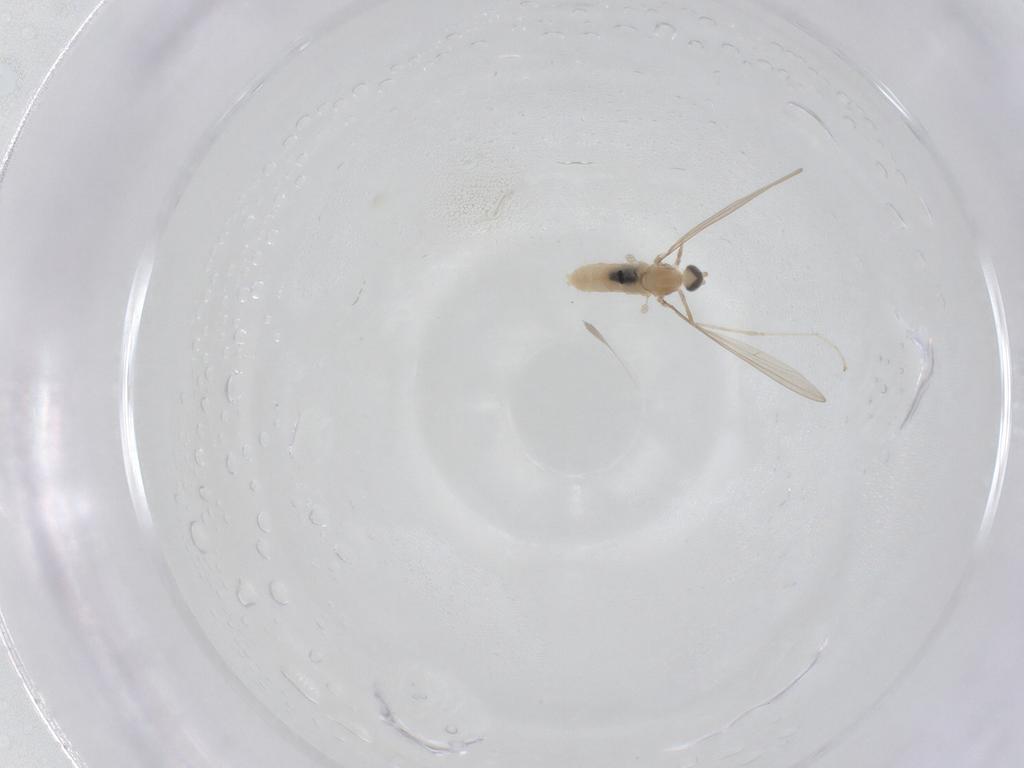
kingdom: Animalia
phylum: Arthropoda
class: Insecta
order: Diptera
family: Cecidomyiidae
